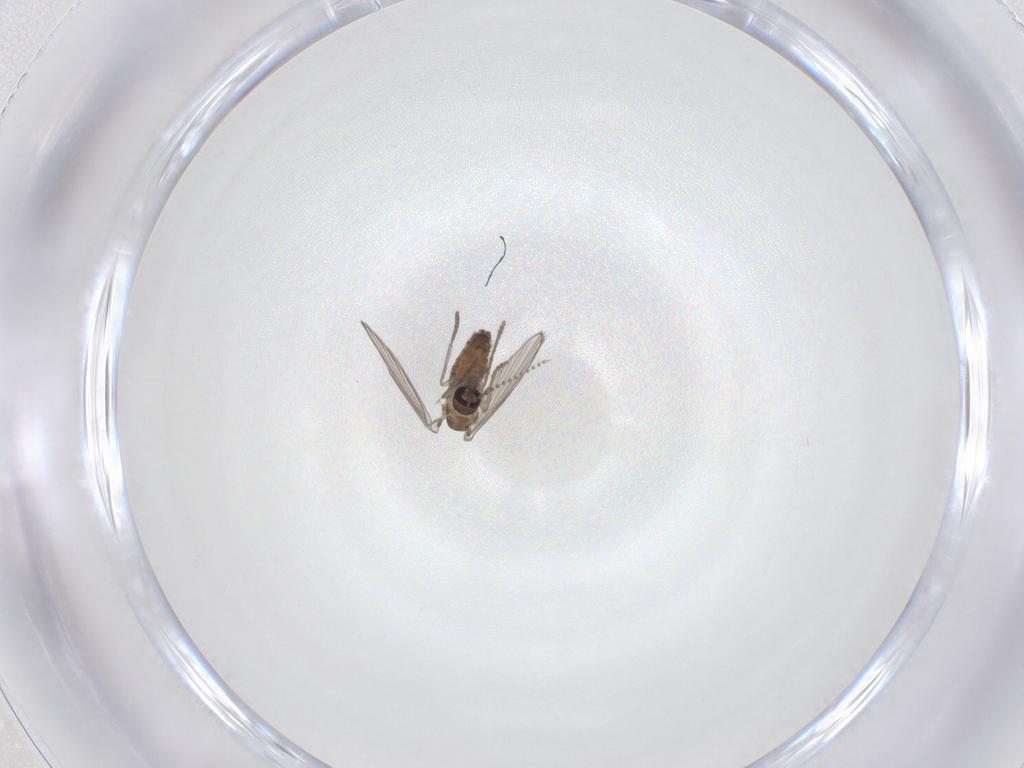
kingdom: Animalia
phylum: Arthropoda
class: Insecta
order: Diptera
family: Psychodidae
